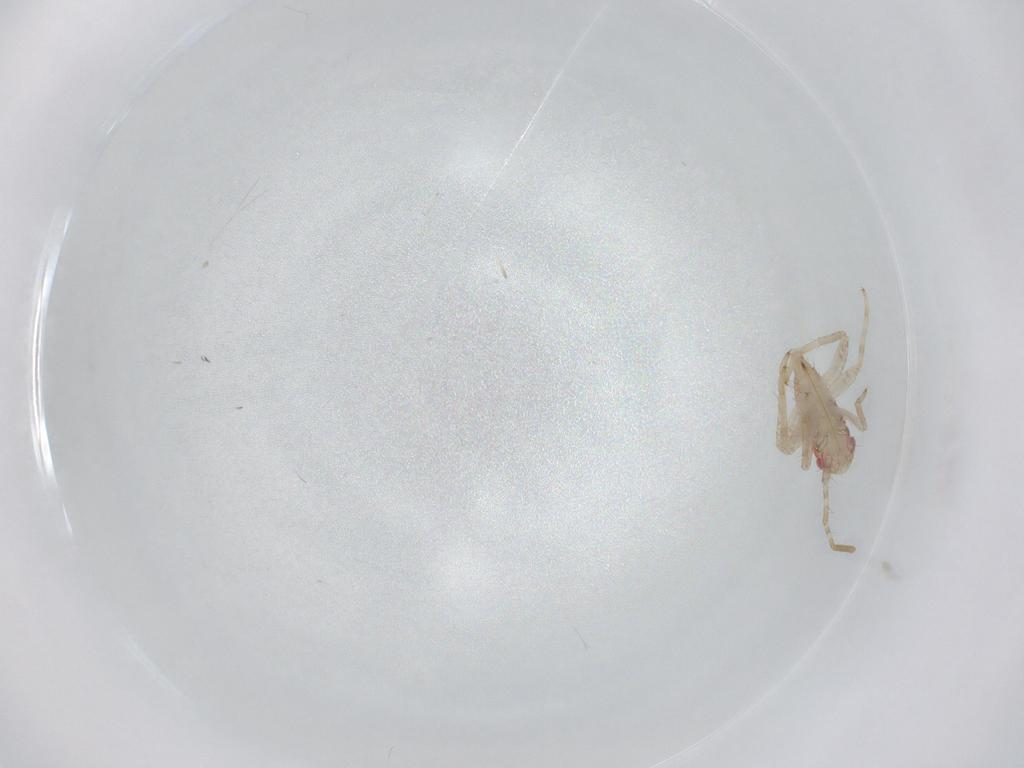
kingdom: Animalia
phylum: Arthropoda
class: Insecta
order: Hemiptera
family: Miridae
